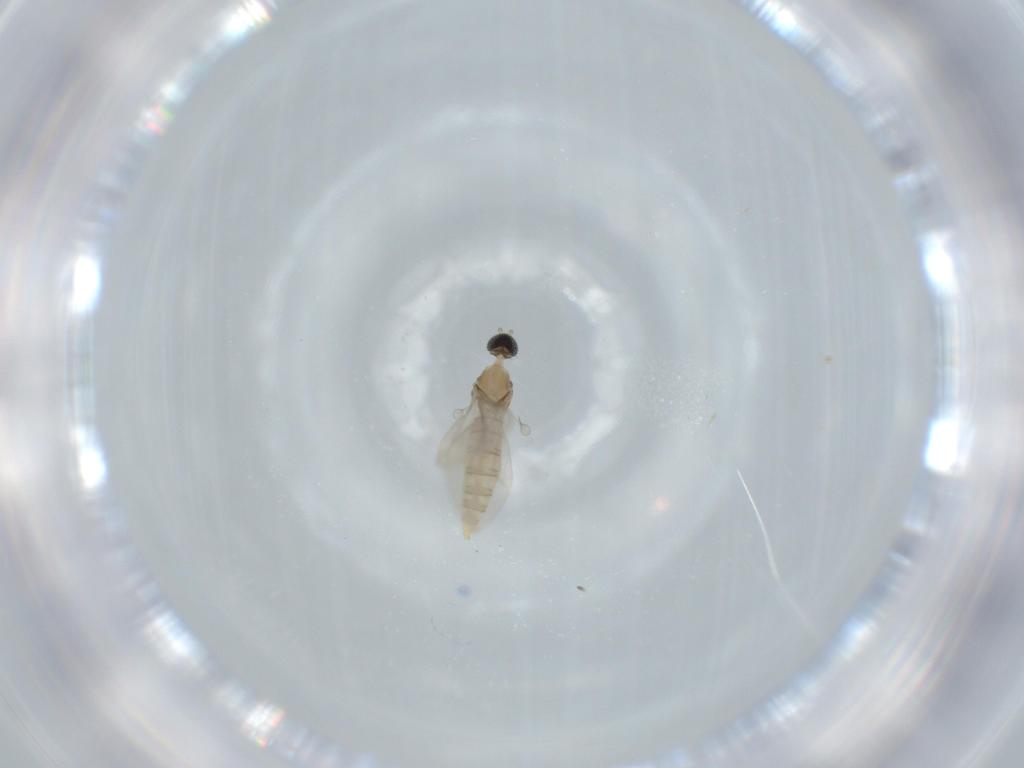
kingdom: Animalia
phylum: Arthropoda
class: Insecta
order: Diptera
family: Cecidomyiidae
